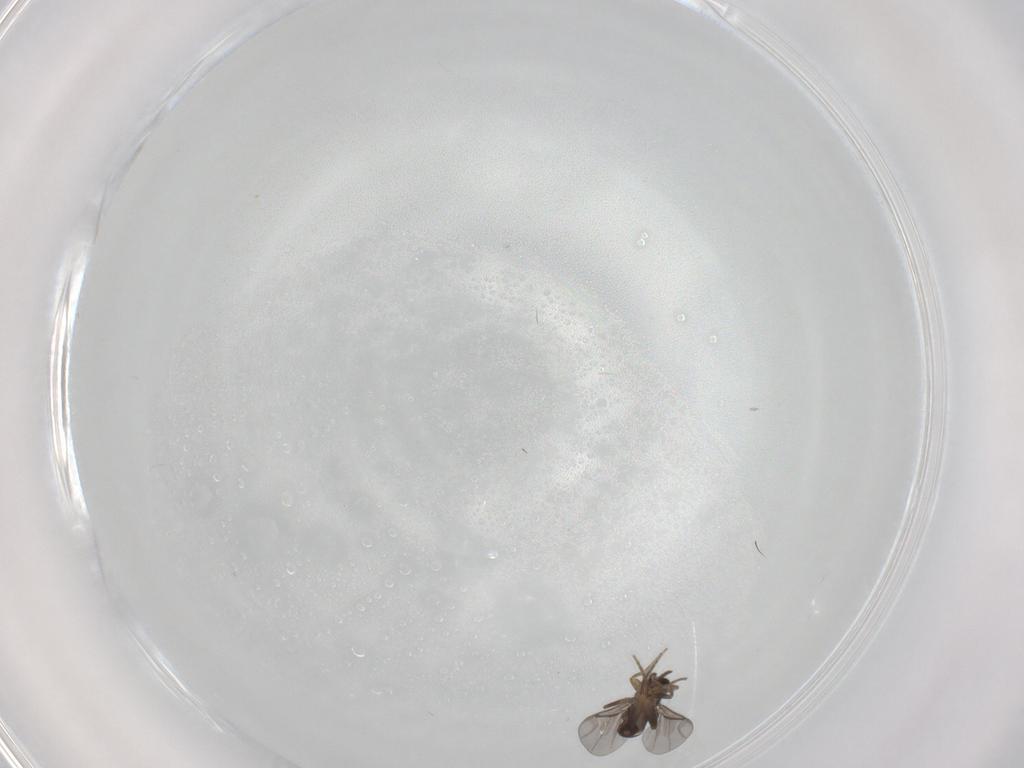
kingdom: Animalia
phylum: Arthropoda
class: Insecta
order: Diptera
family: Phoridae
